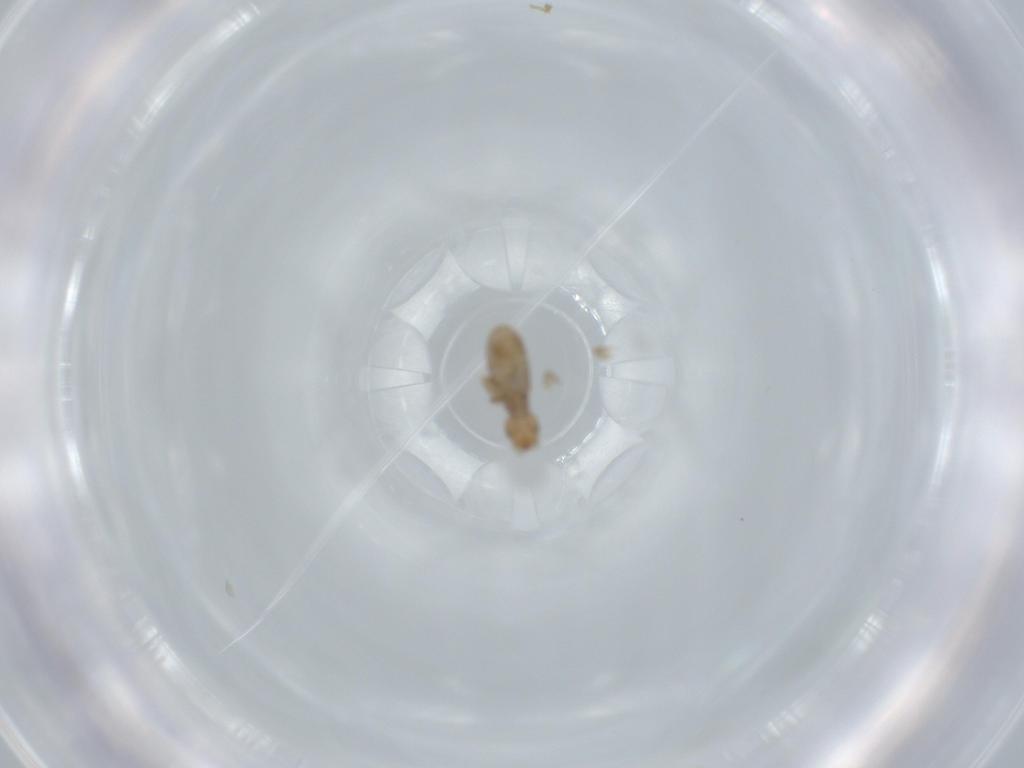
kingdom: Animalia
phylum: Arthropoda
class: Insecta
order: Psocodea
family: Liposcelididae
